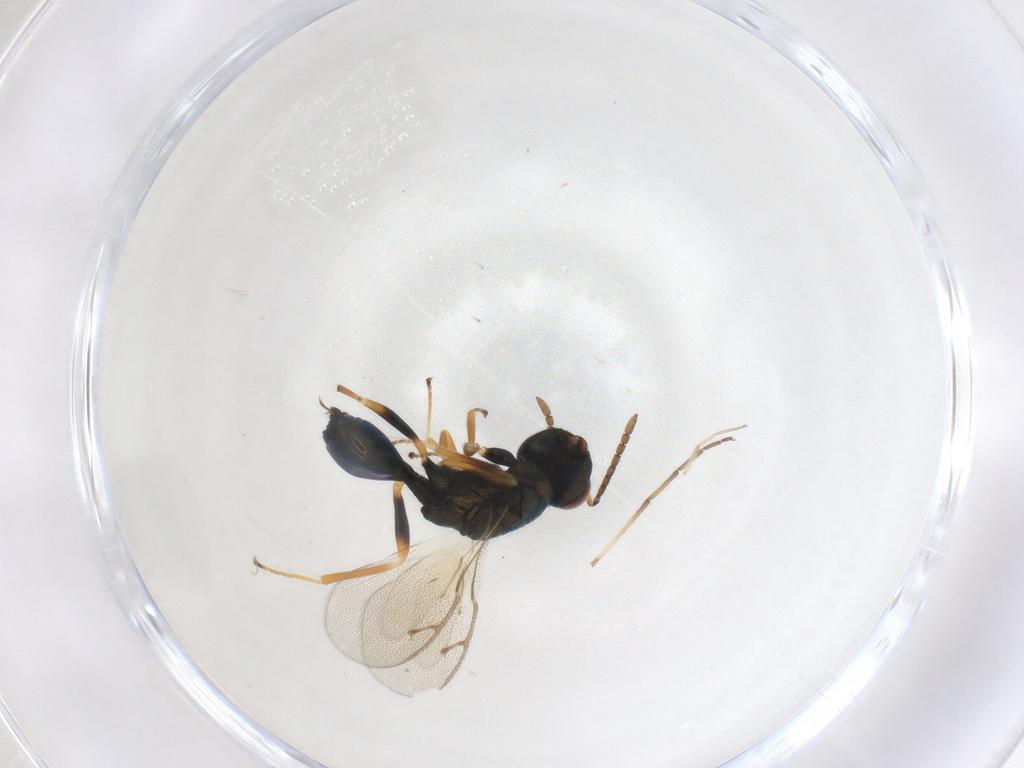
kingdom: Animalia
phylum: Arthropoda
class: Insecta
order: Hymenoptera
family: Pteromalidae
